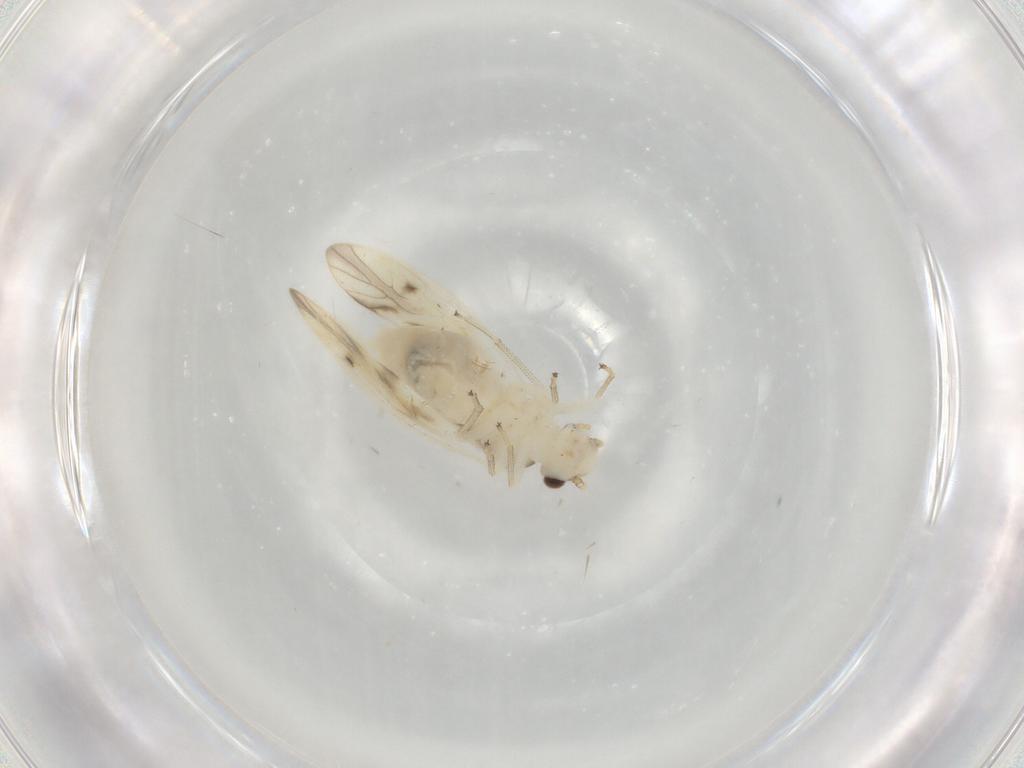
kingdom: Animalia
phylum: Arthropoda
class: Insecta
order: Psocodea
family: Caeciliusidae
